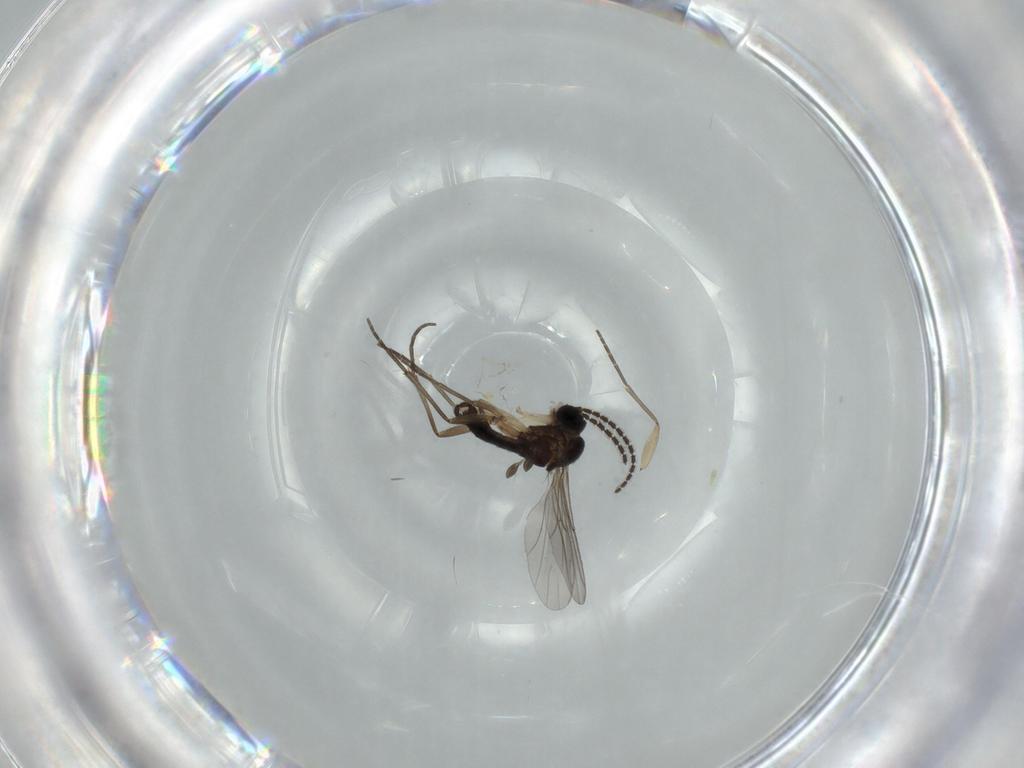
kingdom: Animalia
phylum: Arthropoda
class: Insecta
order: Diptera
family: Sciaridae
